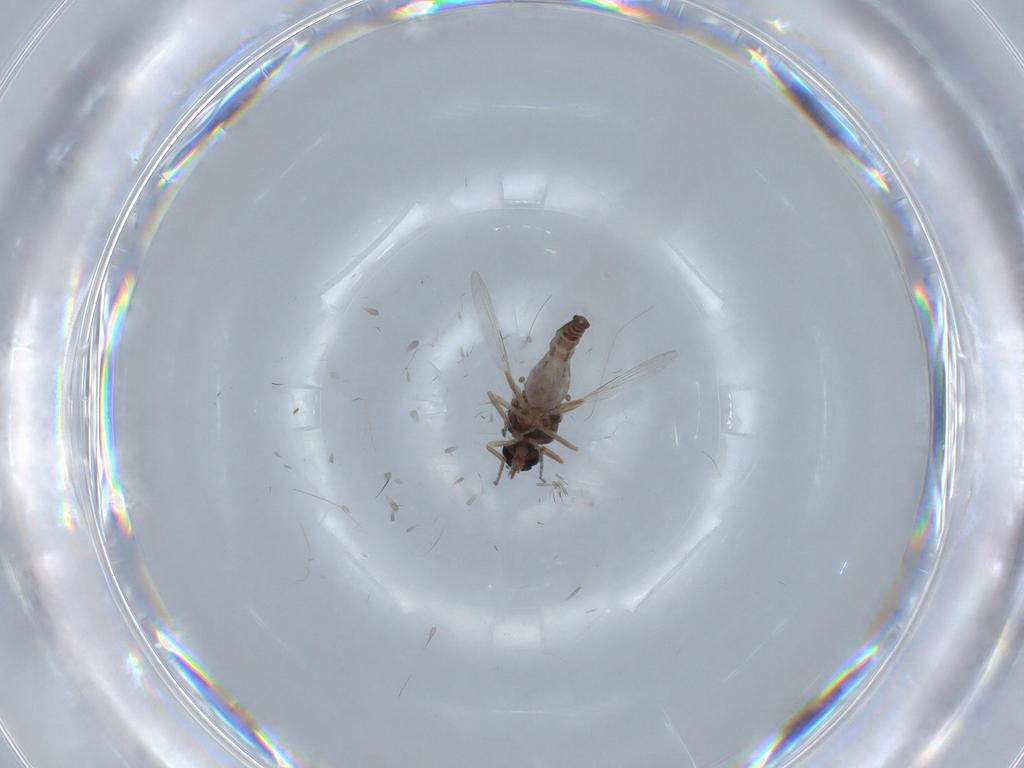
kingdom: Animalia
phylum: Arthropoda
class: Insecta
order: Diptera
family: Ceratopogonidae
